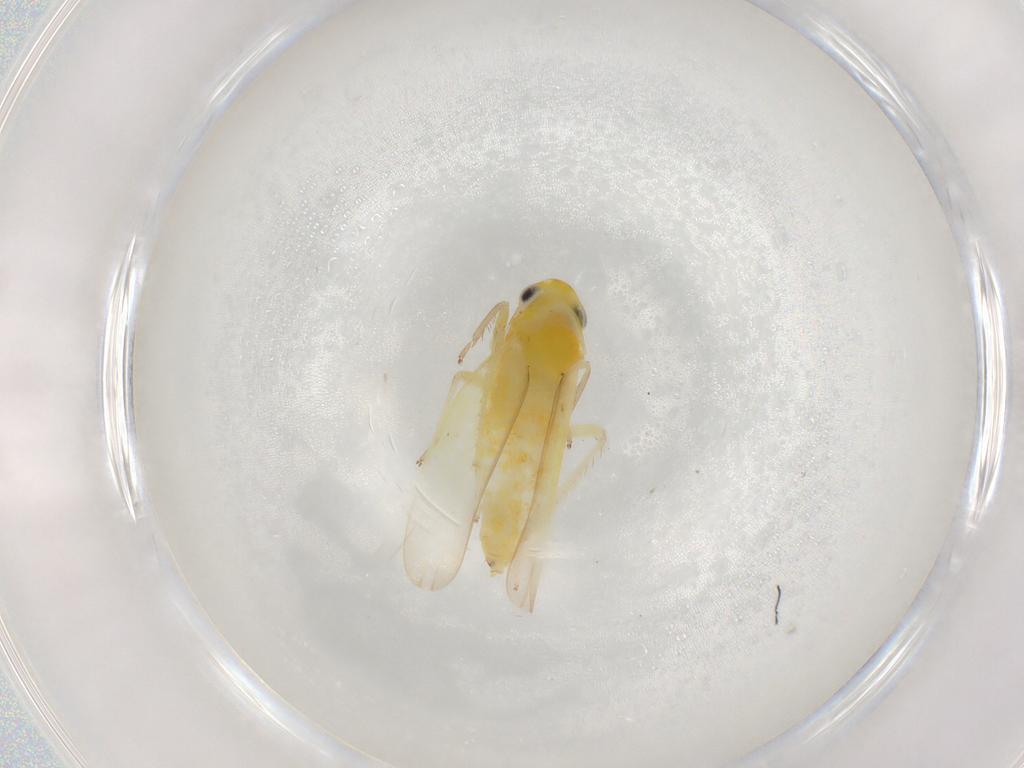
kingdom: Animalia
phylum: Arthropoda
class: Insecta
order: Hemiptera
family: Cicadellidae
